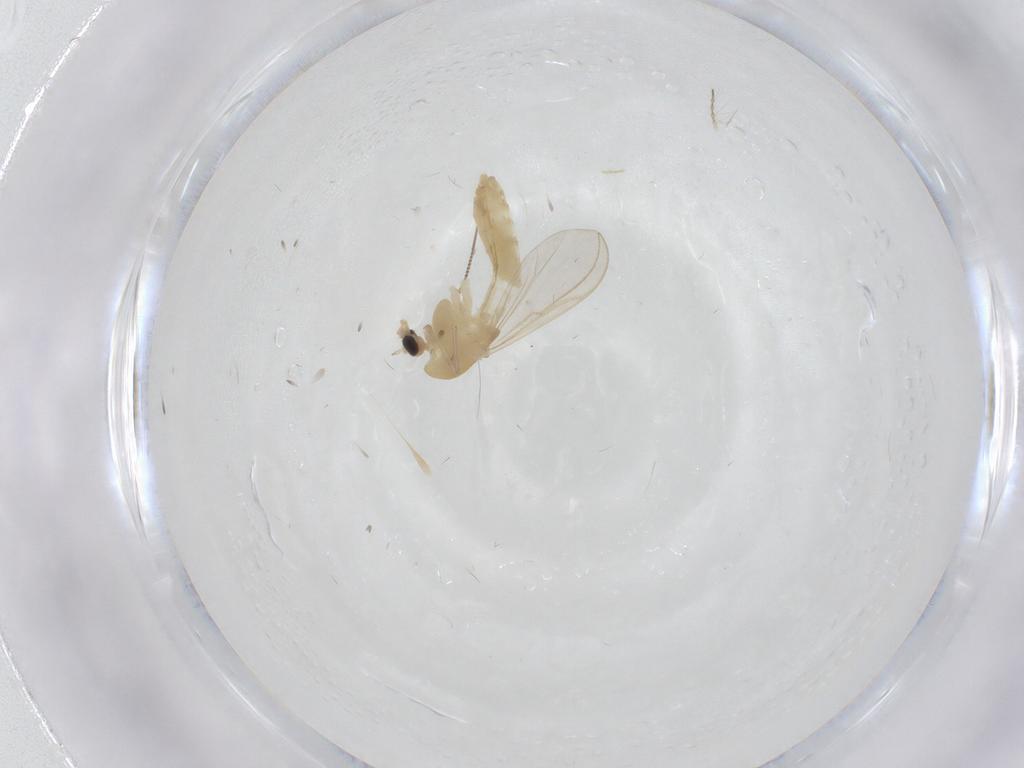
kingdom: Animalia
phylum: Arthropoda
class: Insecta
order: Diptera
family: Chironomidae
